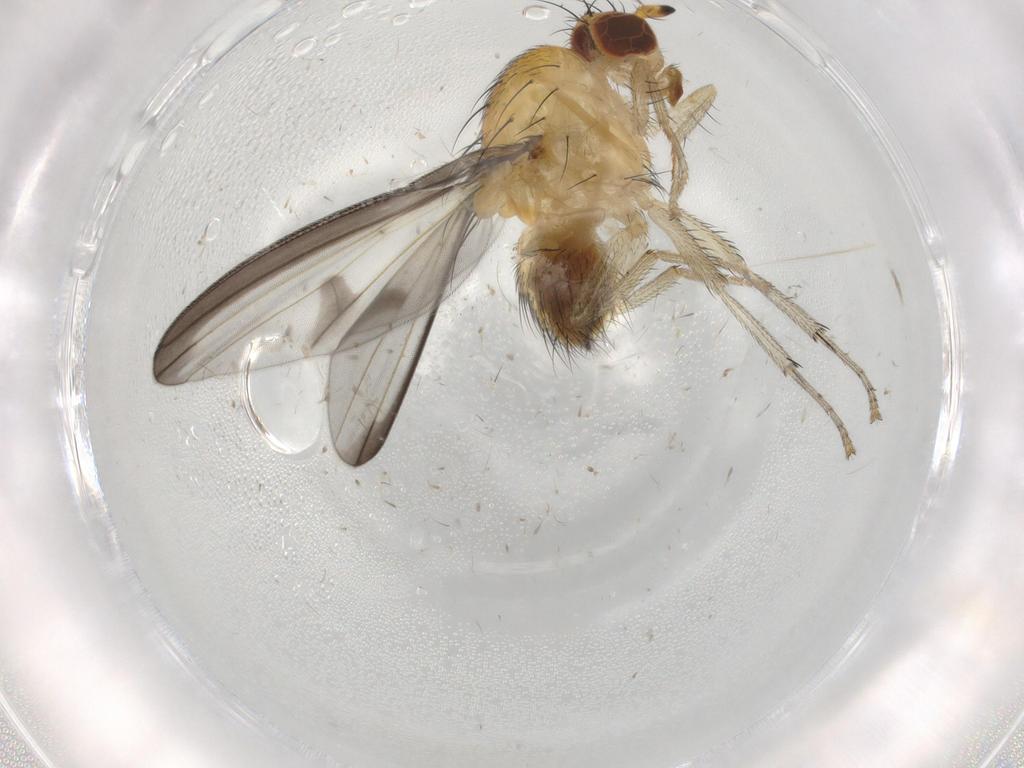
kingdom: Animalia
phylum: Arthropoda
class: Insecta
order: Diptera
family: Lauxaniidae
